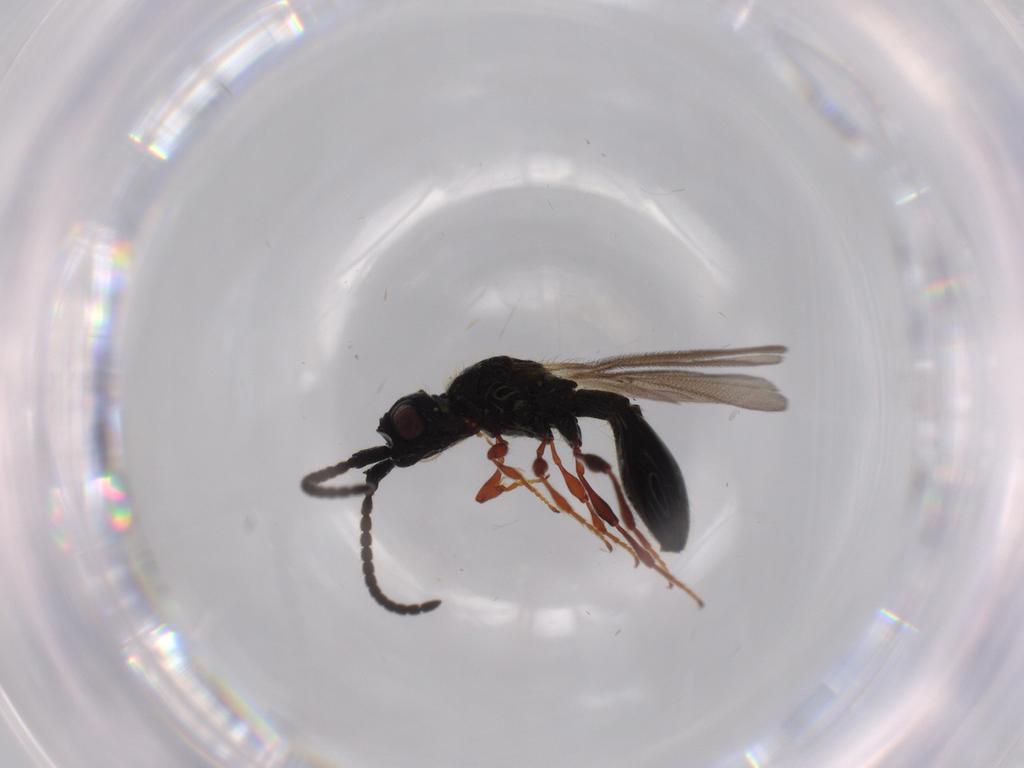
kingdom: Animalia
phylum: Arthropoda
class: Insecta
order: Hymenoptera
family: Diapriidae
